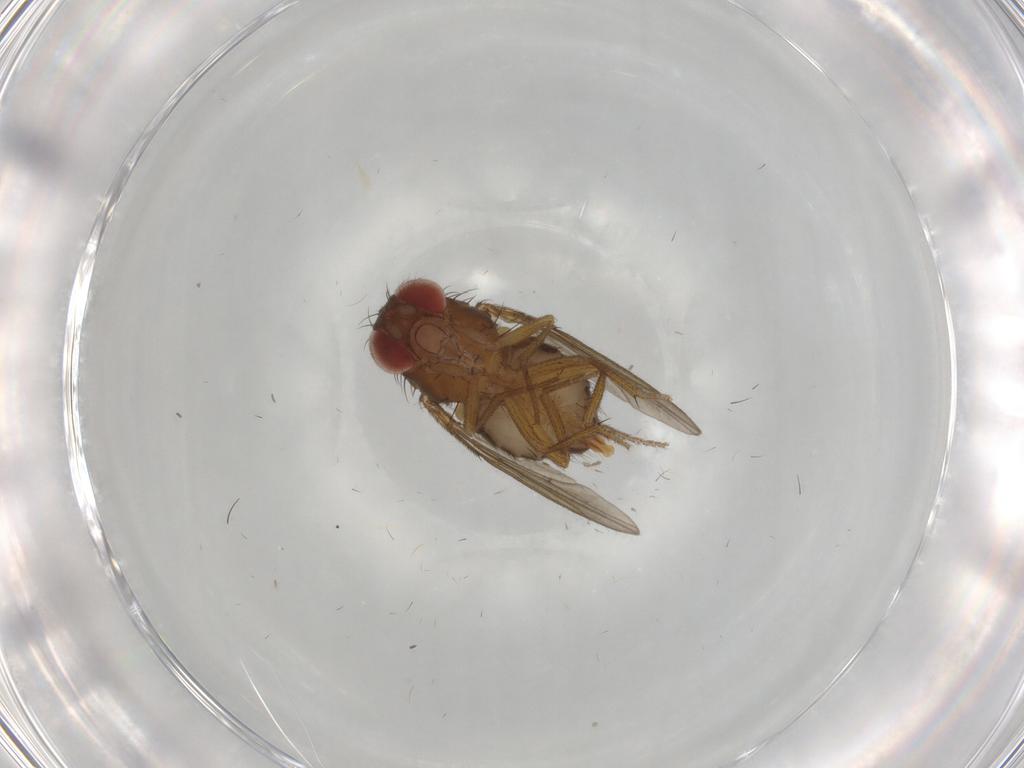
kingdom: Animalia
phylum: Arthropoda
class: Insecta
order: Diptera
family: Drosophilidae
